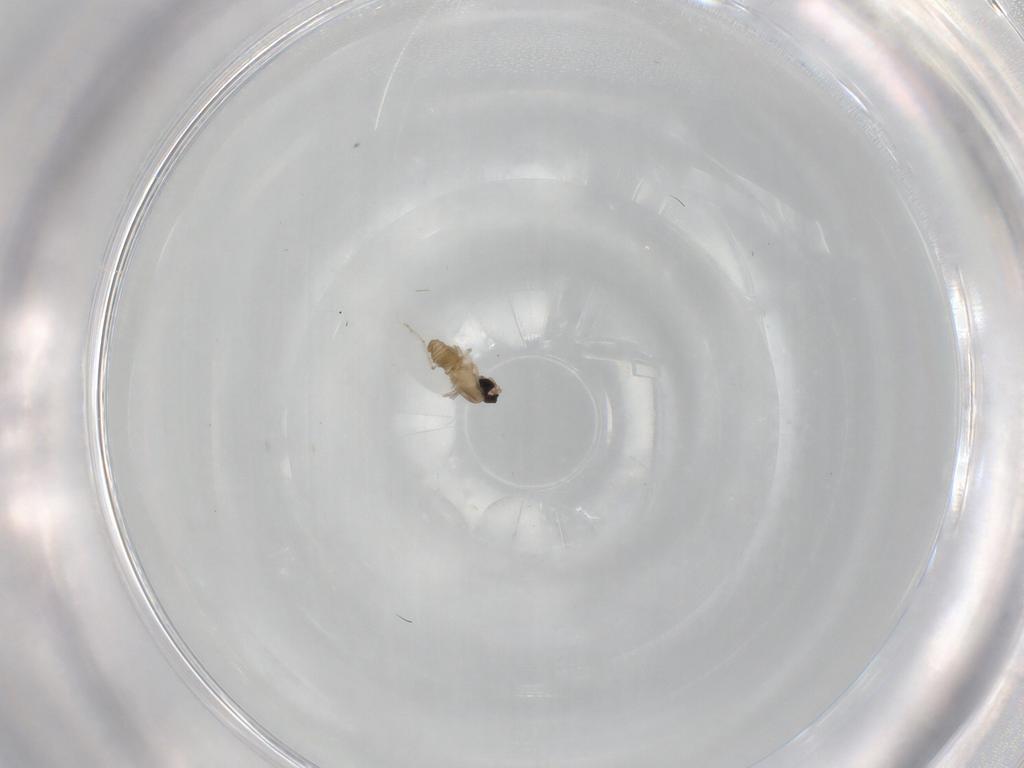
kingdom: Animalia
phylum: Arthropoda
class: Insecta
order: Diptera
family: Cecidomyiidae
